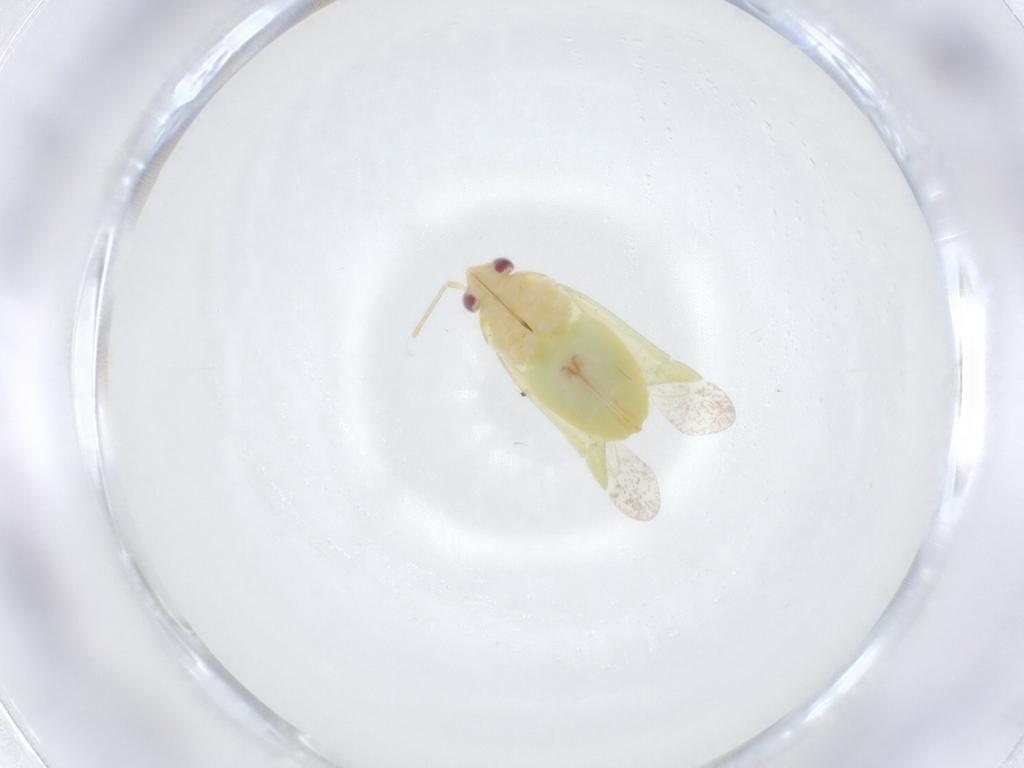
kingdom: Animalia
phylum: Arthropoda
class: Insecta
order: Hemiptera
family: Miridae
